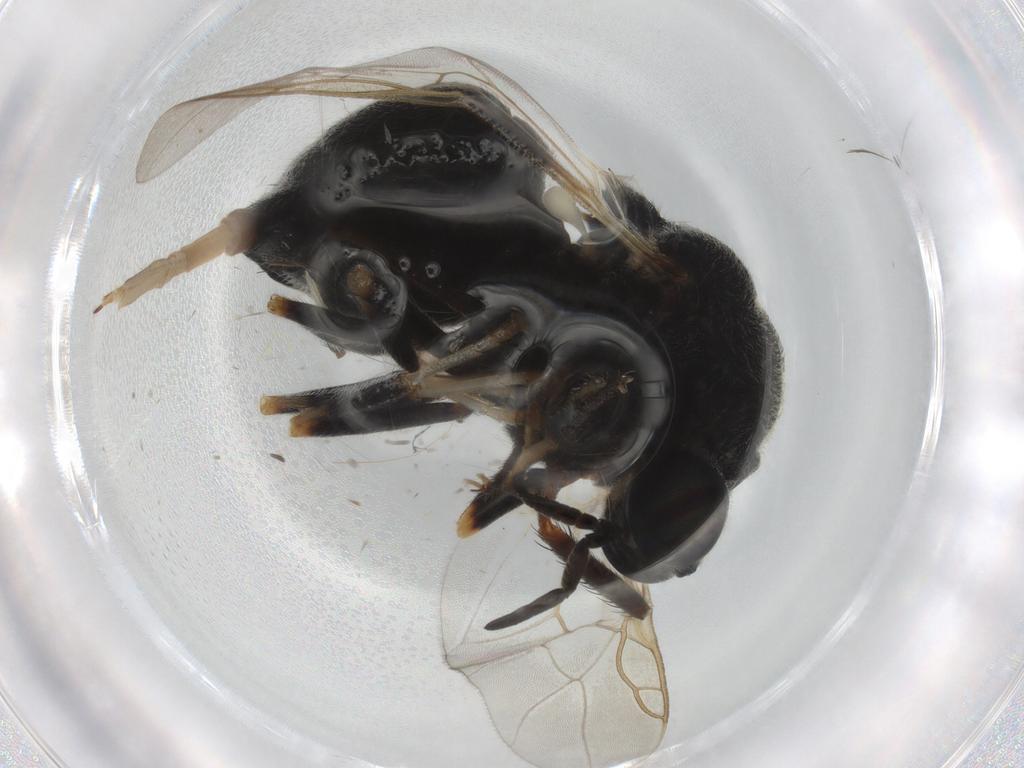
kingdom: Animalia
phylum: Arthropoda
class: Insecta
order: Diptera
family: Stratiomyidae
